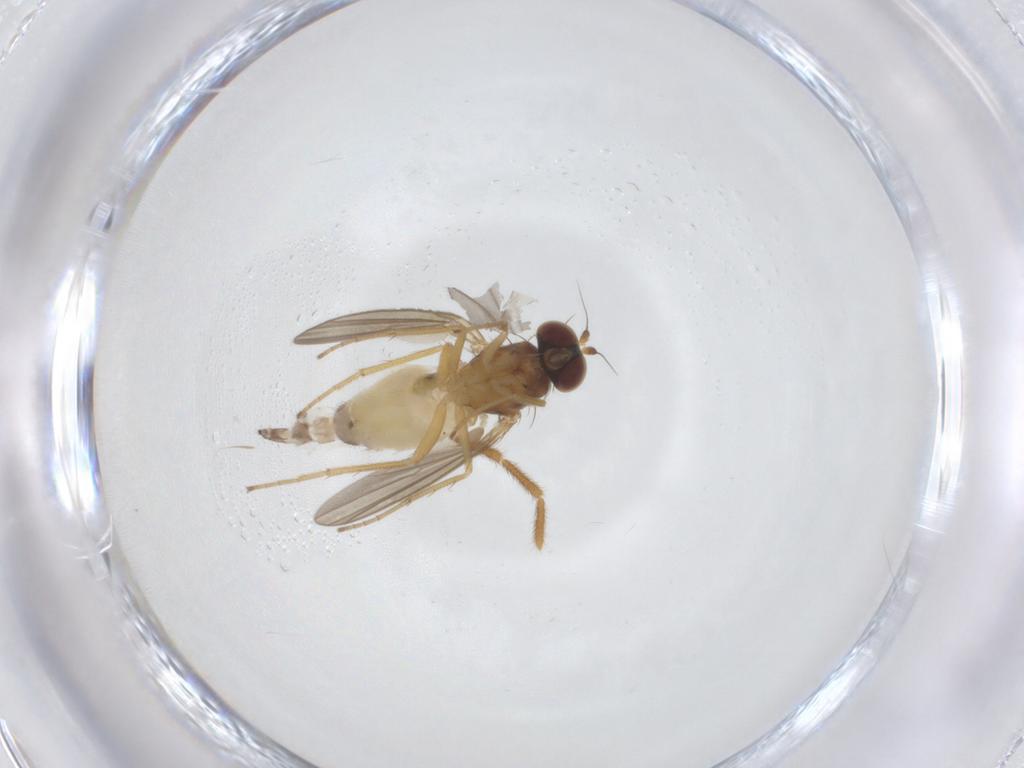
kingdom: Animalia
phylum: Arthropoda
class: Insecta
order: Diptera
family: Dolichopodidae
